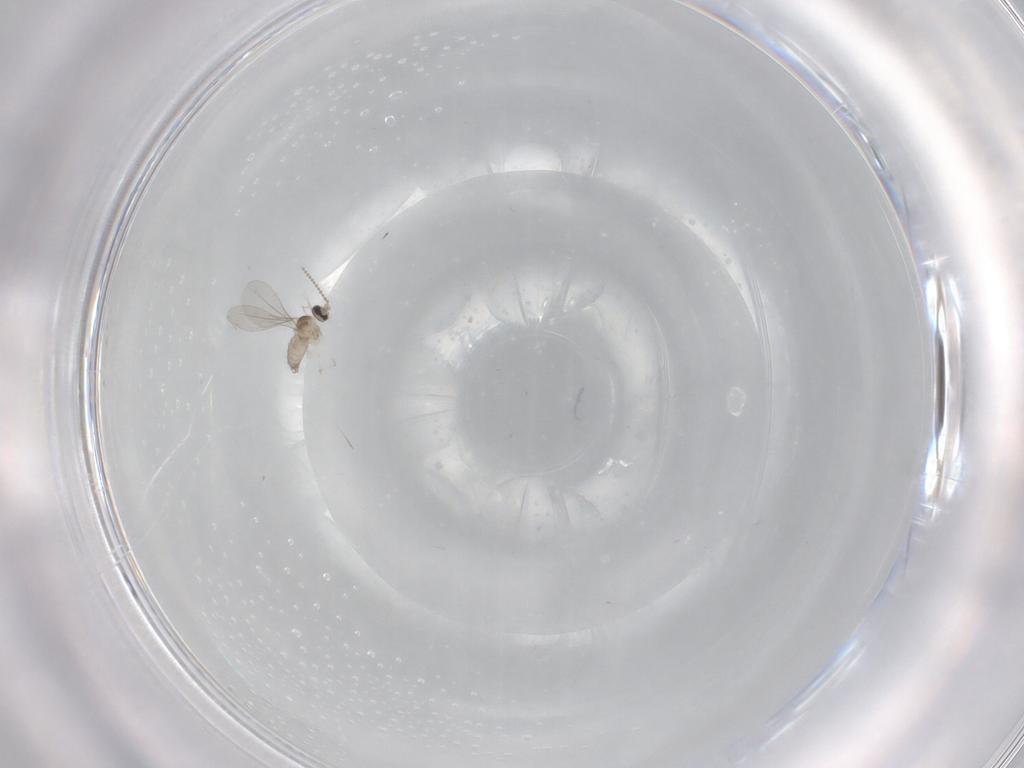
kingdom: Animalia
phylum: Arthropoda
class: Insecta
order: Diptera
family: Cecidomyiidae
